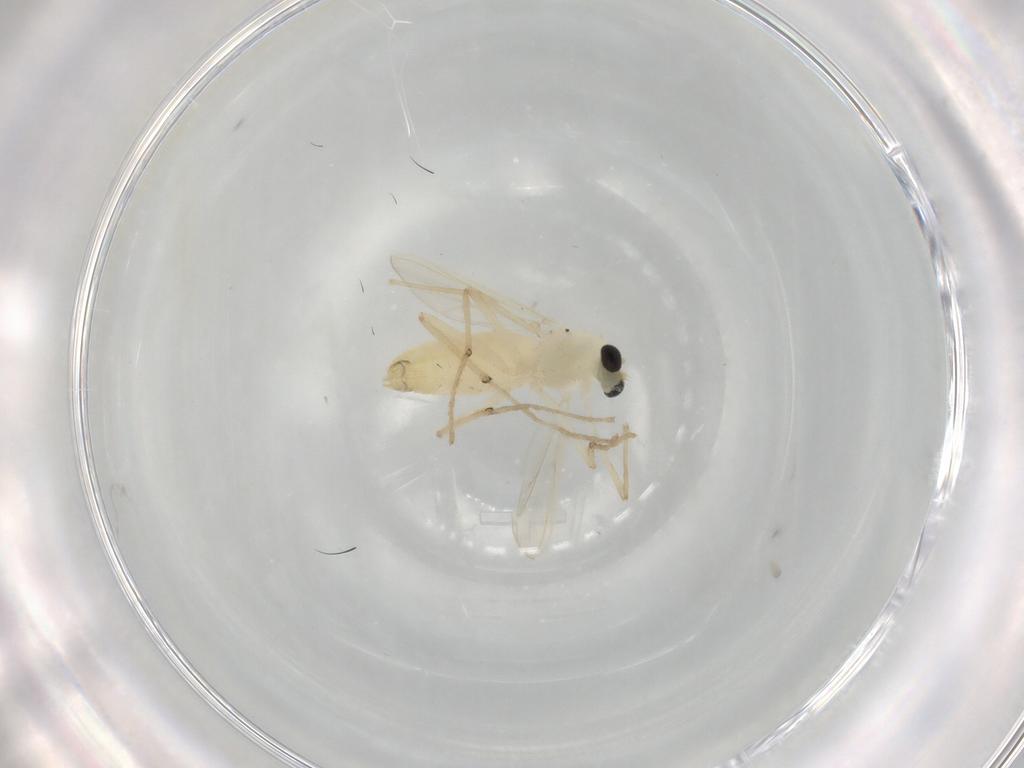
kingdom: Animalia
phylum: Arthropoda
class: Insecta
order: Diptera
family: Chironomidae
